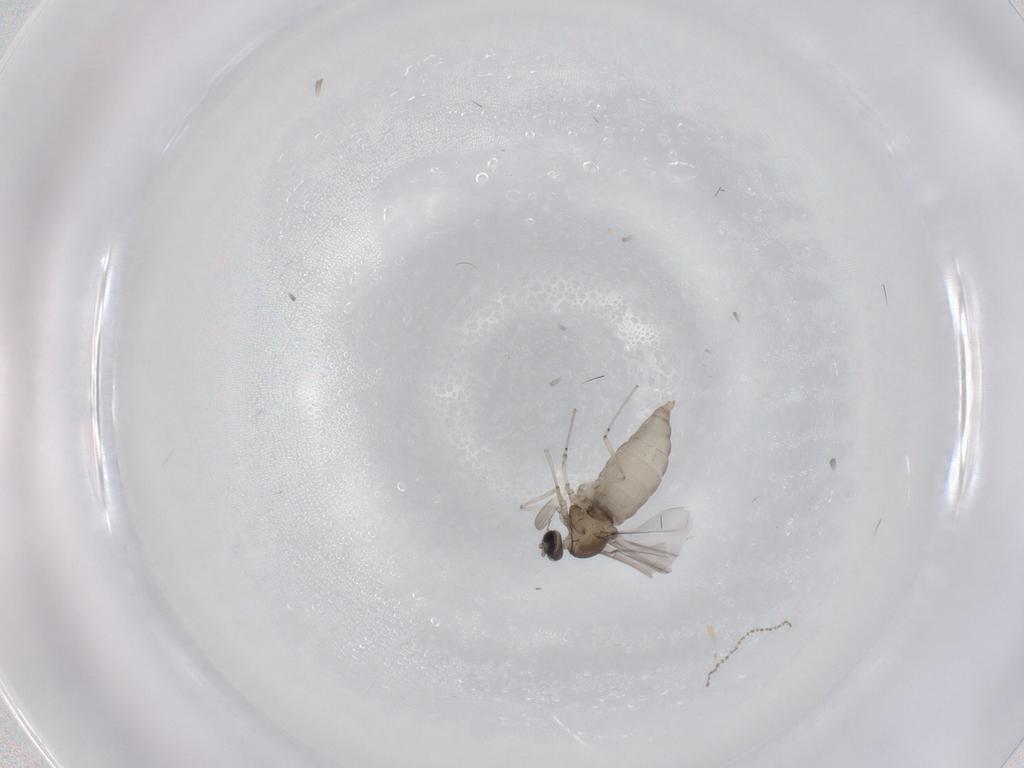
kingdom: Animalia
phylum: Arthropoda
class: Insecta
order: Diptera
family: Cecidomyiidae
